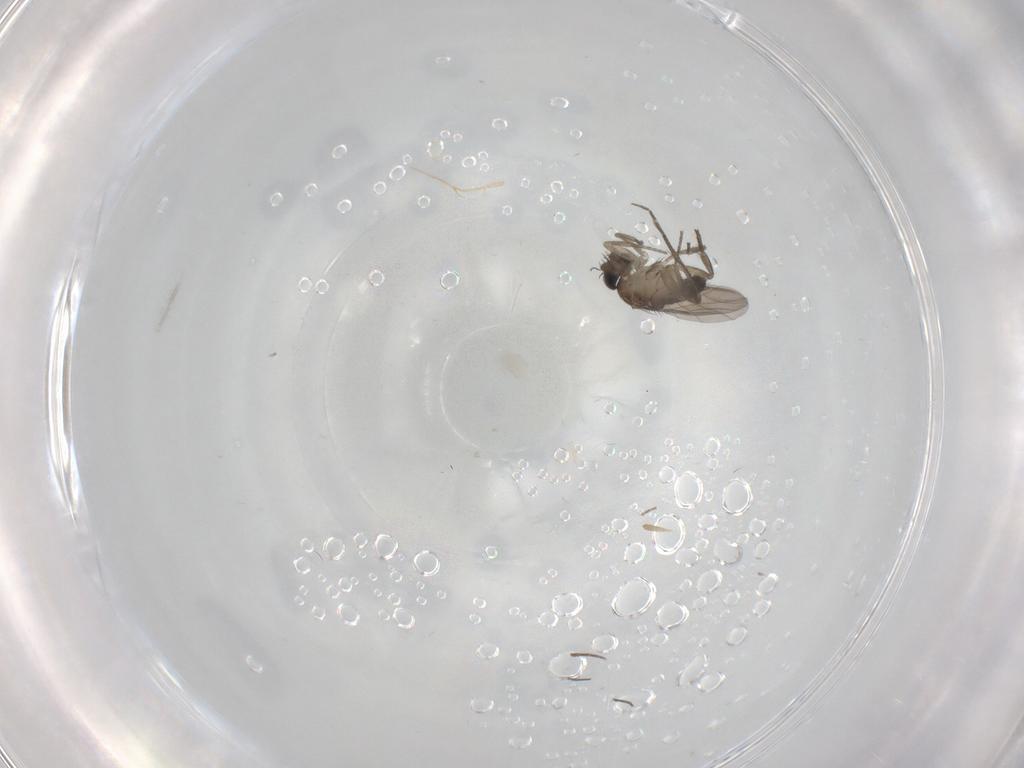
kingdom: Animalia
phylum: Arthropoda
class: Insecta
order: Diptera
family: Phoridae
